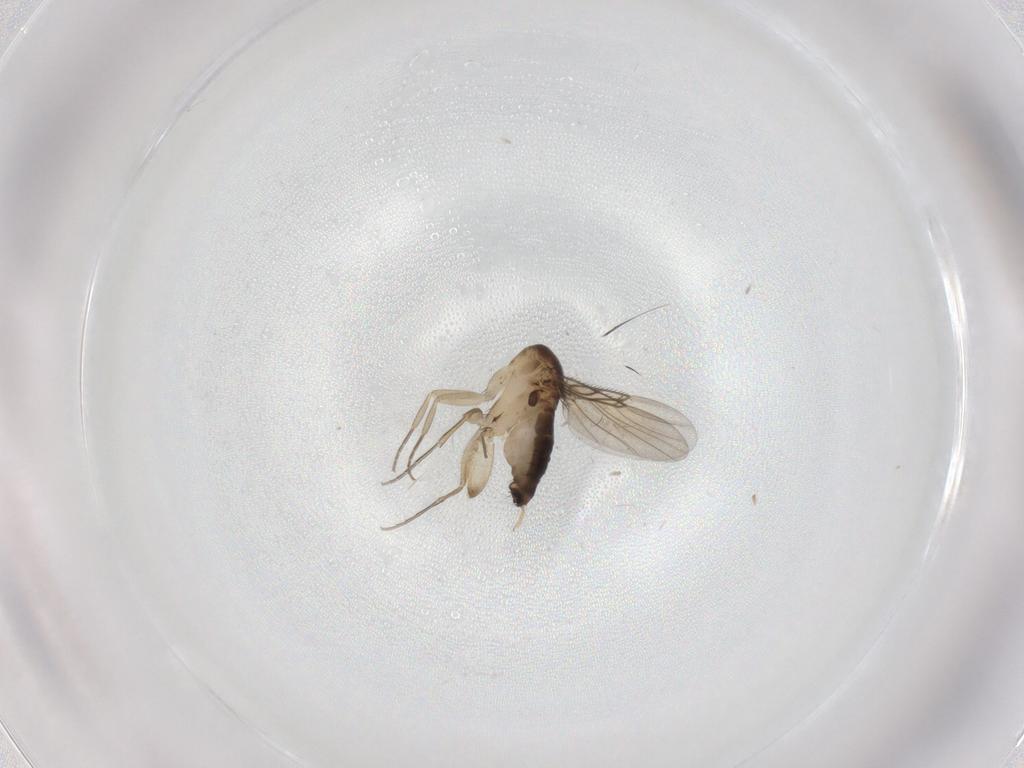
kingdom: Animalia
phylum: Arthropoda
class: Insecta
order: Diptera
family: Phoridae
